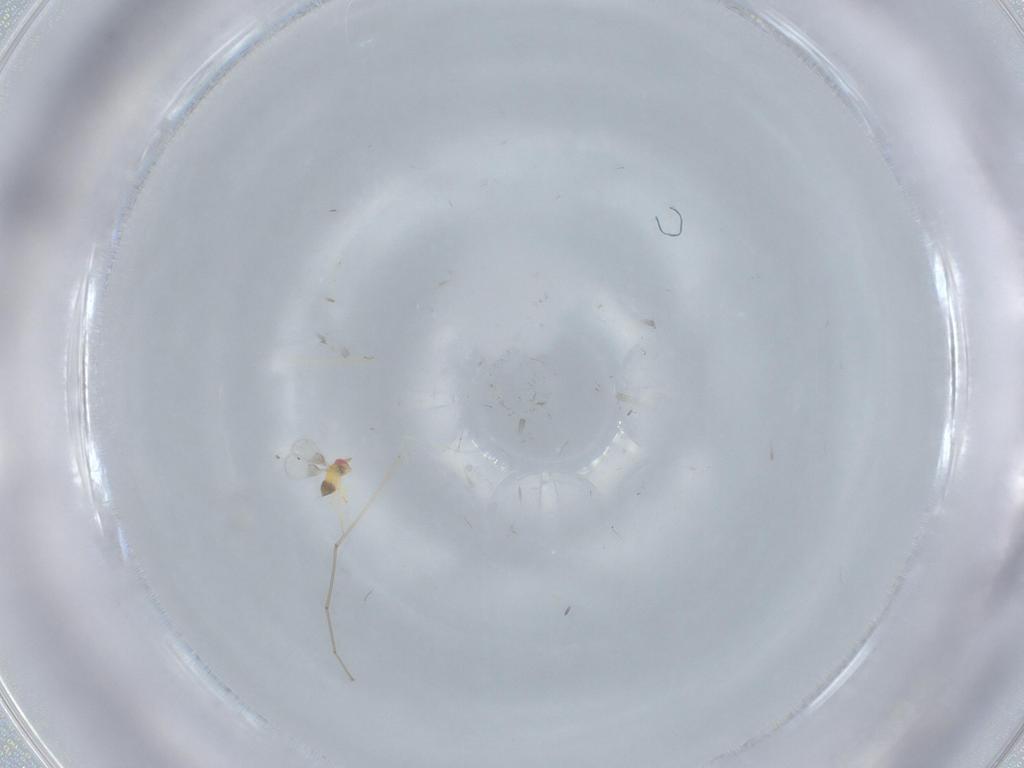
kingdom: Animalia
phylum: Arthropoda
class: Insecta
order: Hymenoptera
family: Trichogrammatidae
